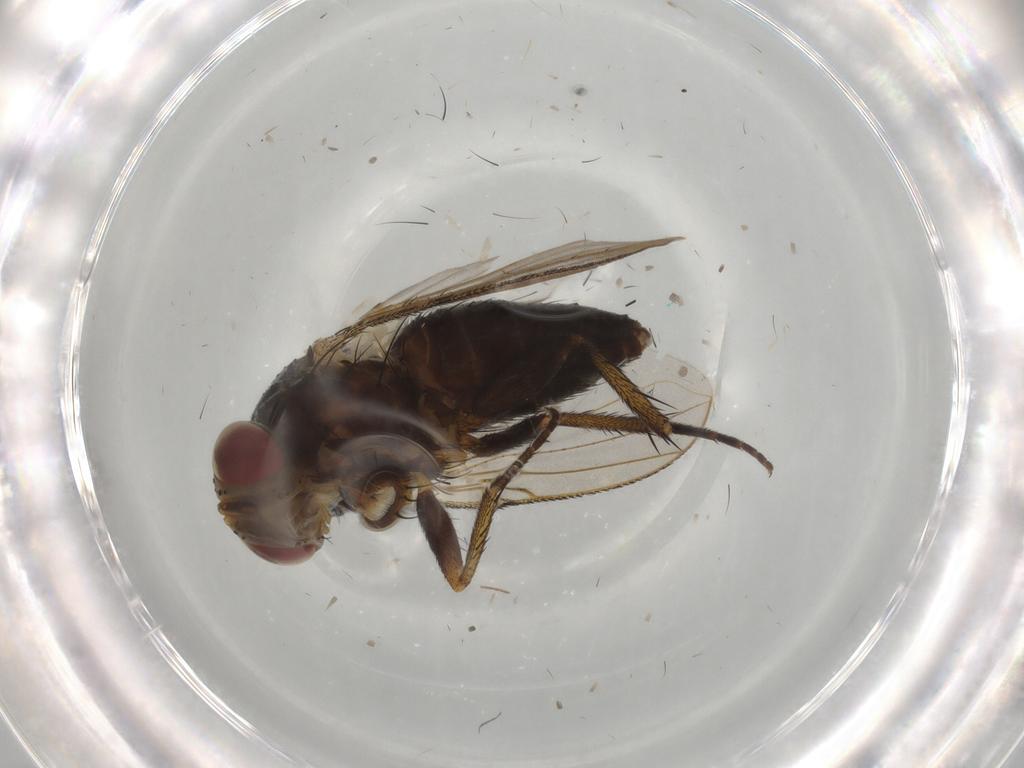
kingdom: Animalia
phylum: Arthropoda
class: Insecta
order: Diptera
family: Tachinidae
